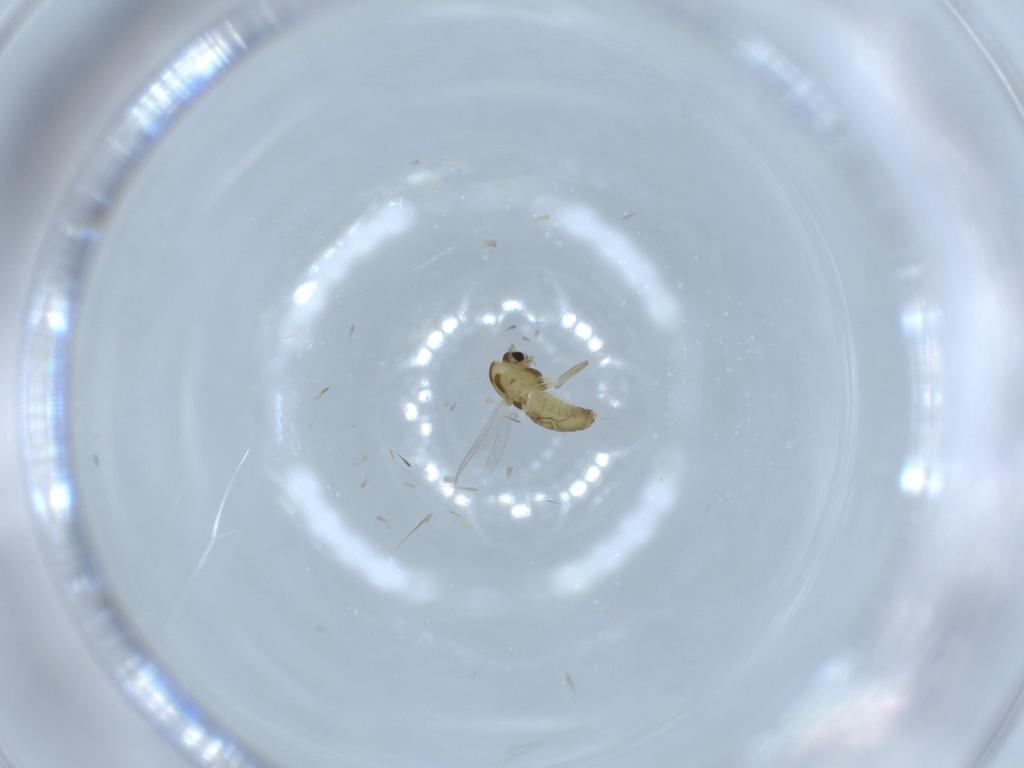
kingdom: Animalia
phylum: Arthropoda
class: Insecta
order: Diptera
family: Chironomidae
